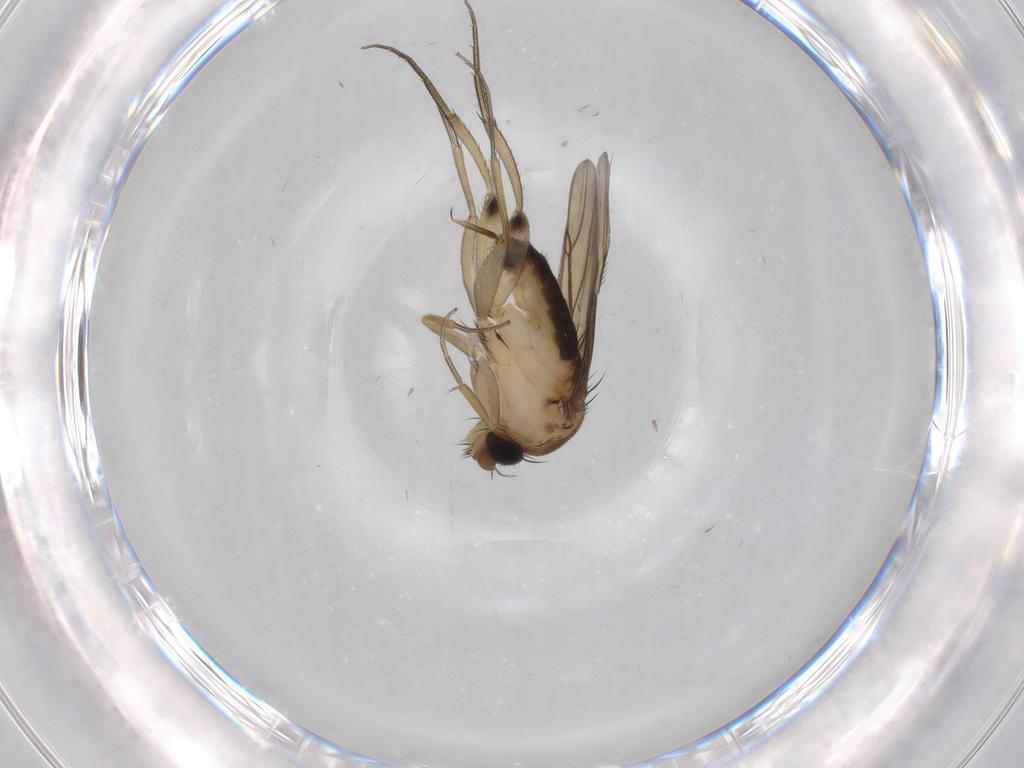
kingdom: Animalia
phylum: Arthropoda
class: Insecta
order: Diptera
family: Phoridae
